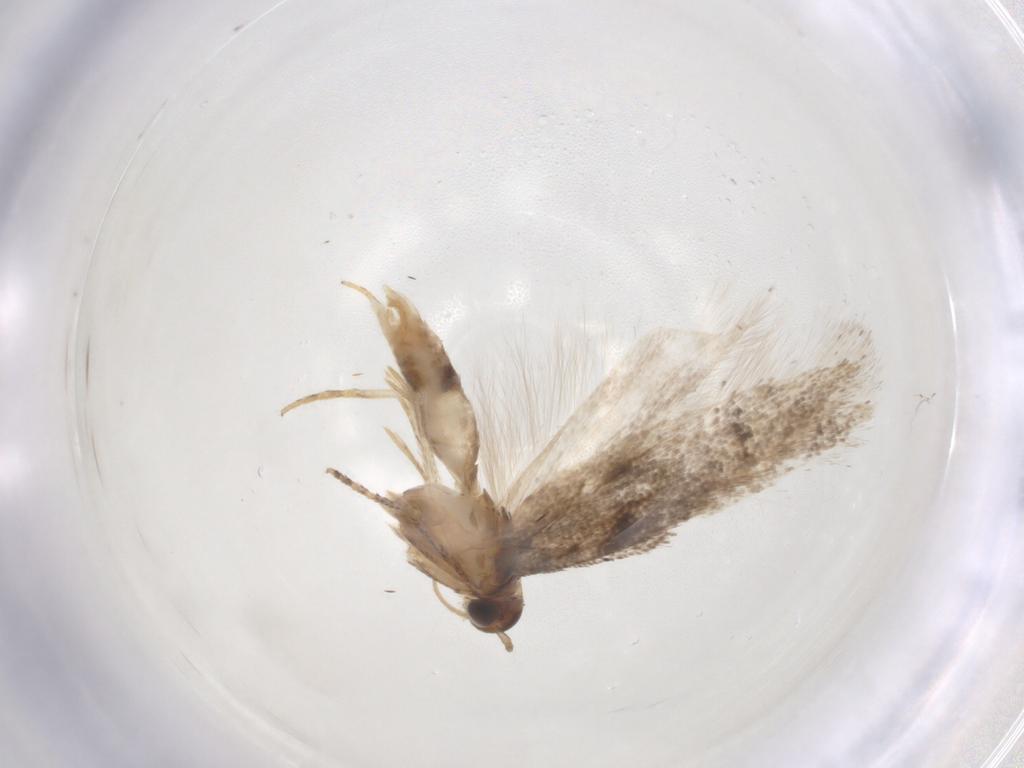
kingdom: Animalia
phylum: Arthropoda
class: Insecta
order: Lepidoptera
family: Gelechiidae
